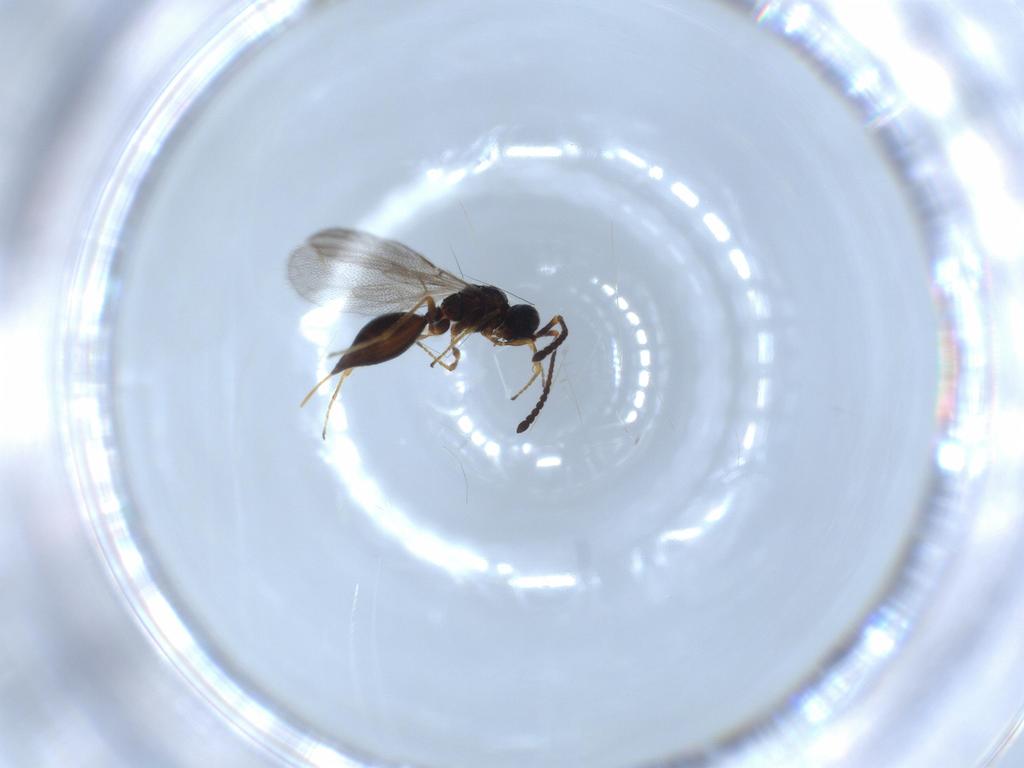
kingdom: Animalia
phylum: Arthropoda
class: Insecta
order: Hymenoptera
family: Diapriidae
